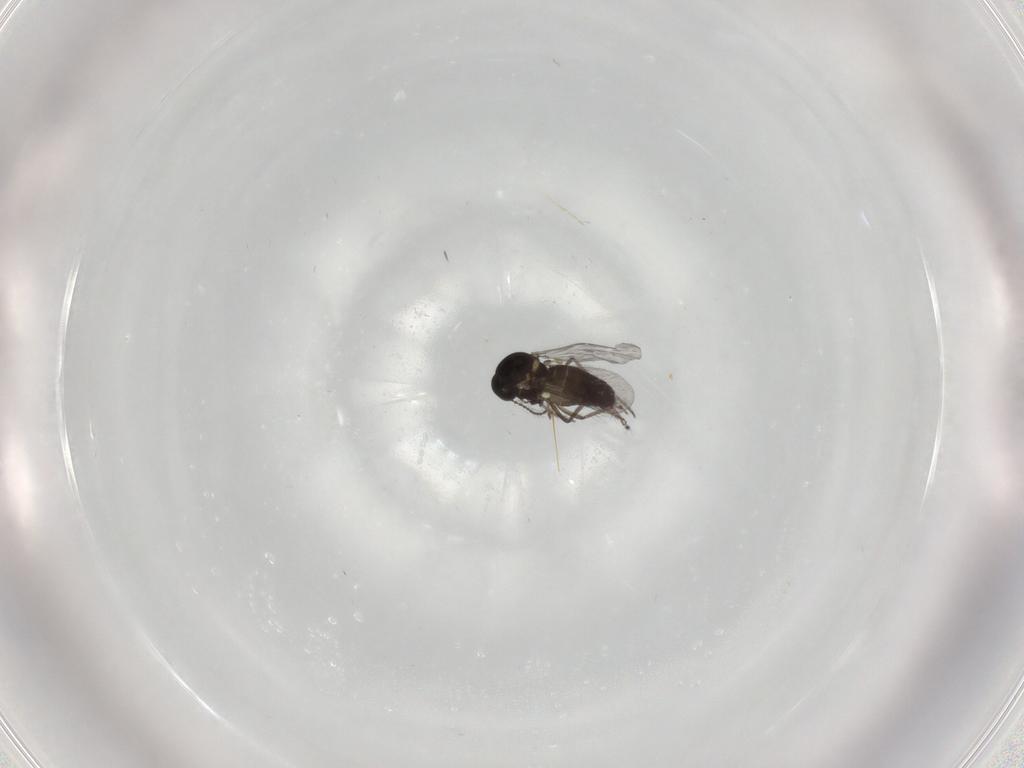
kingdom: Animalia
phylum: Arthropoda
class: Insecta
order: Diptera
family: Ceratopogonidae
